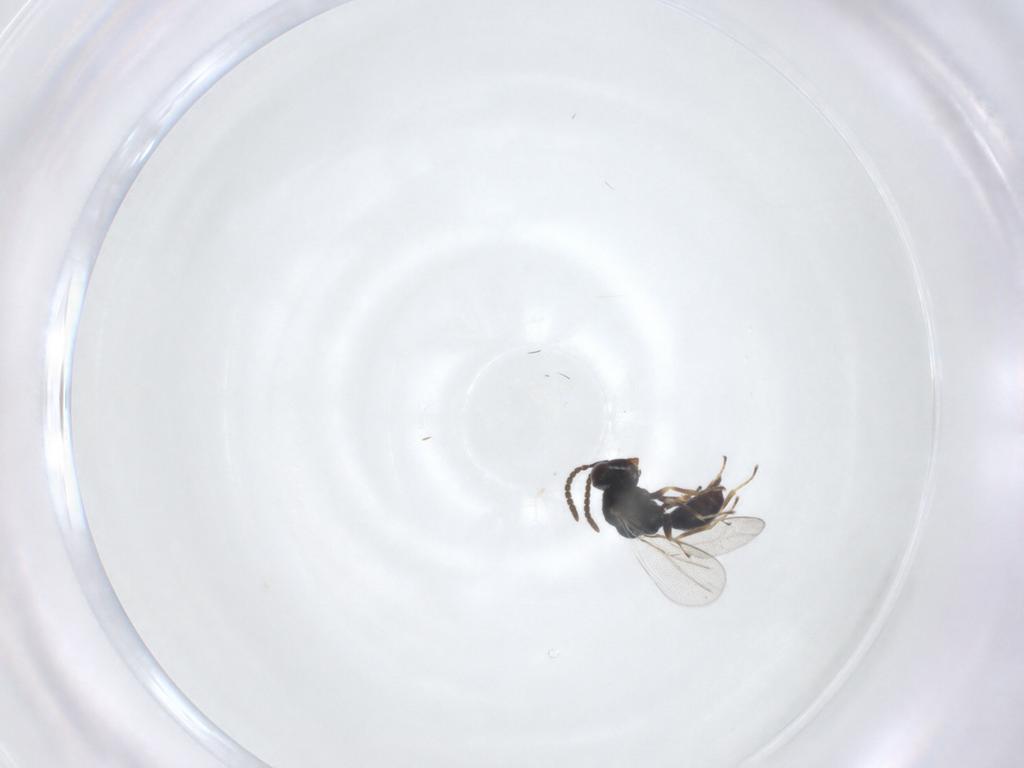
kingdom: Animalia
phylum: Arthropoda
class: Insecta
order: Hymenoptera
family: Pteromalidae
